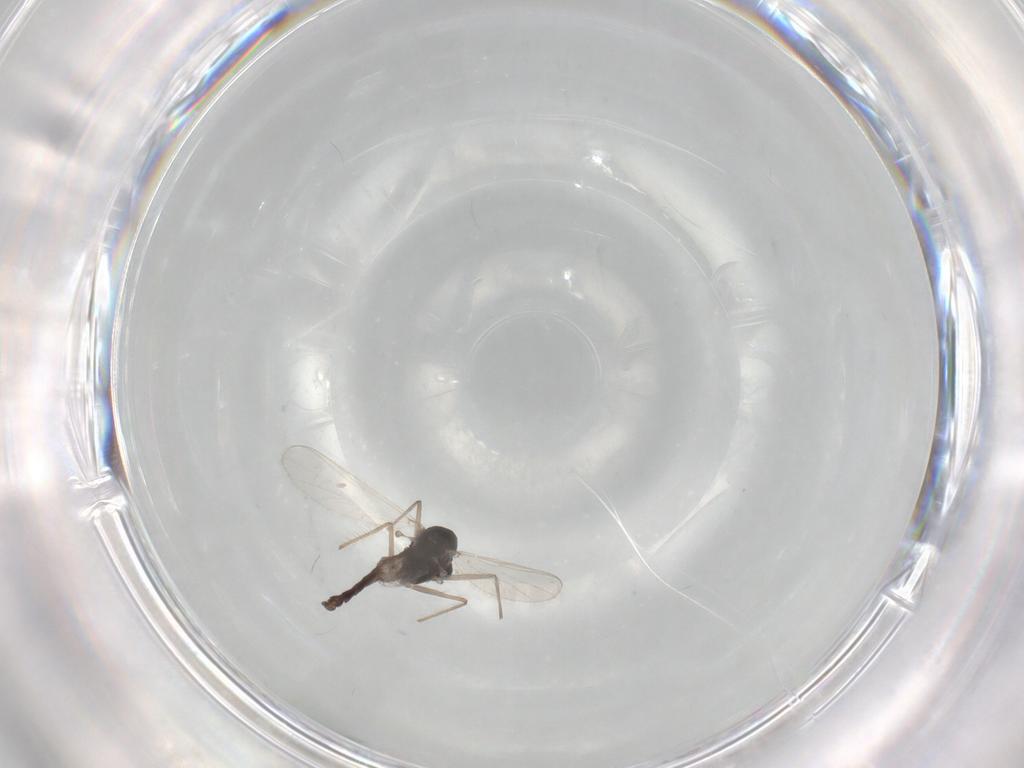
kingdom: Animalia
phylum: Arthropoda
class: Insecta
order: Diptera
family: Chironomidae
